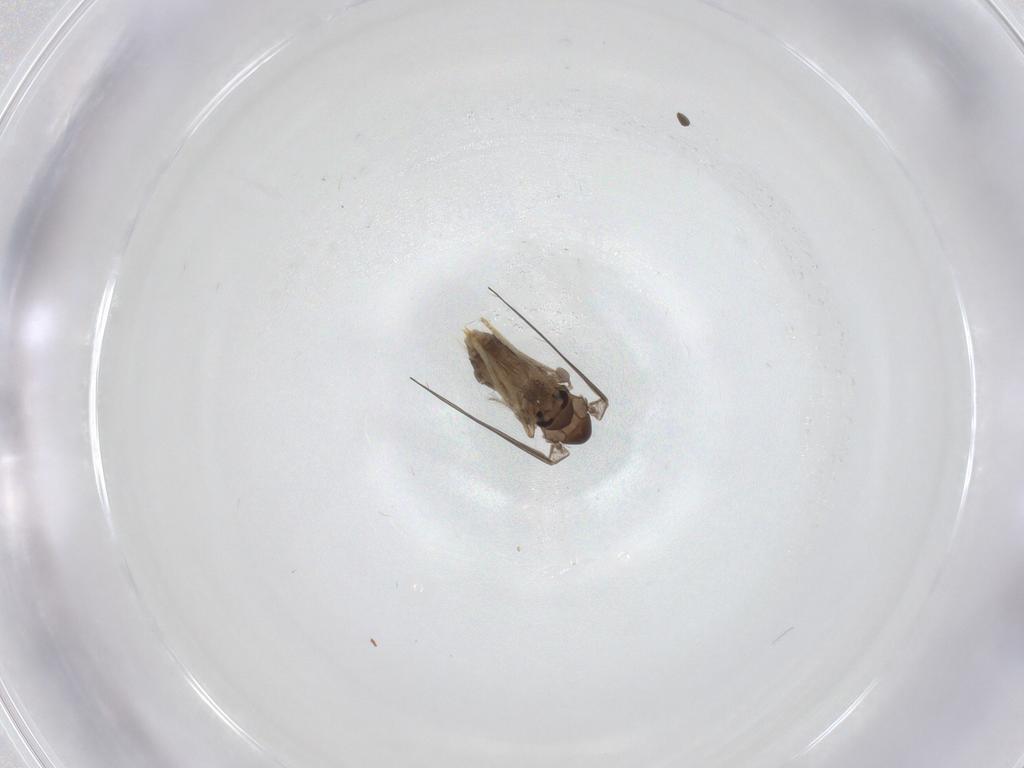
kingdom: Animalia
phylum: Arthropoda
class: Insecta
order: Diptera
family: Psychodidae
